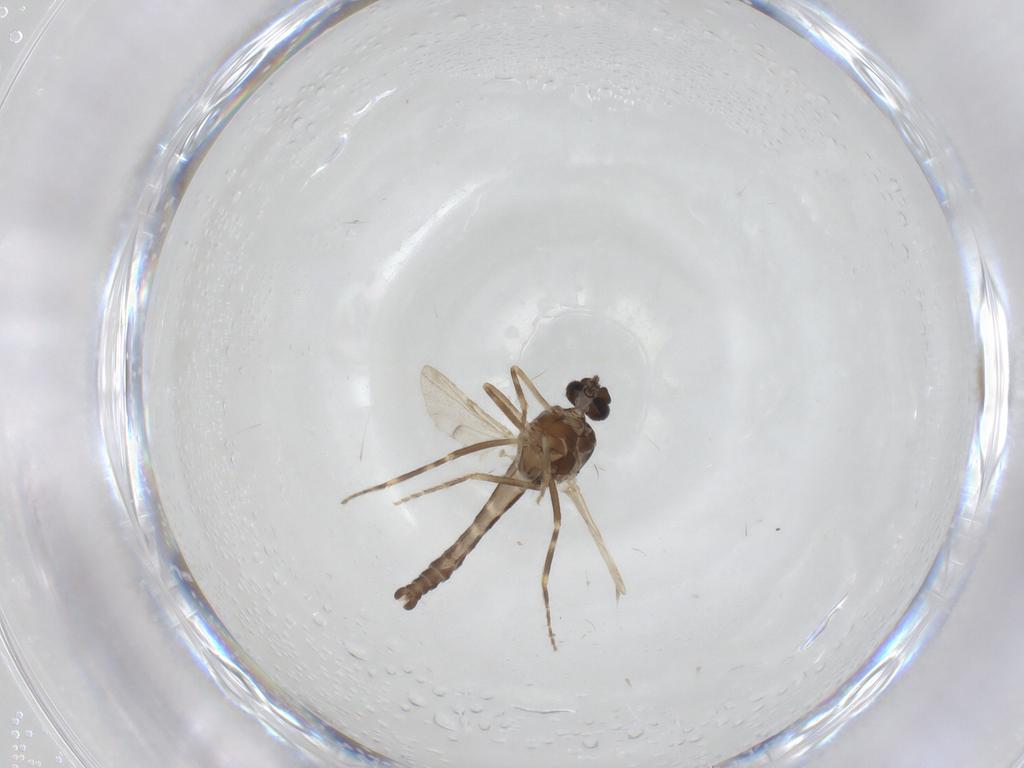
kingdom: Animalia
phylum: Arthropoda
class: Insecta
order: Diptera
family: Ceratopogonidae
